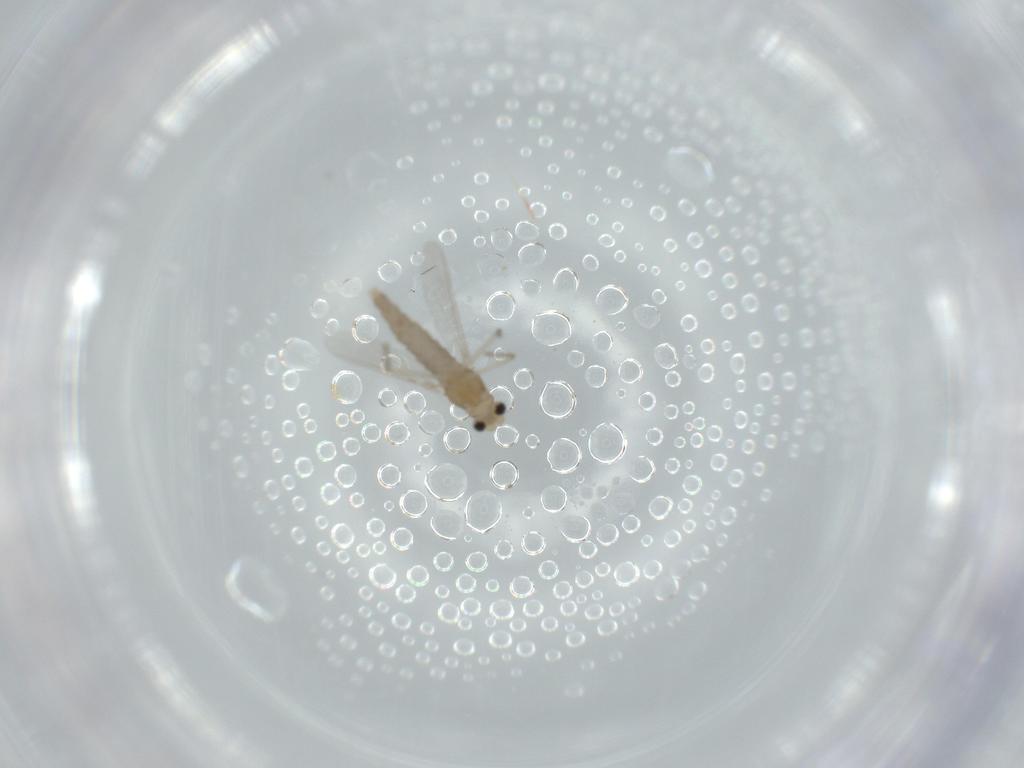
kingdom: Animalia
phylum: Arthropoda
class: Insecta
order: Diptera
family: Chironomidae
